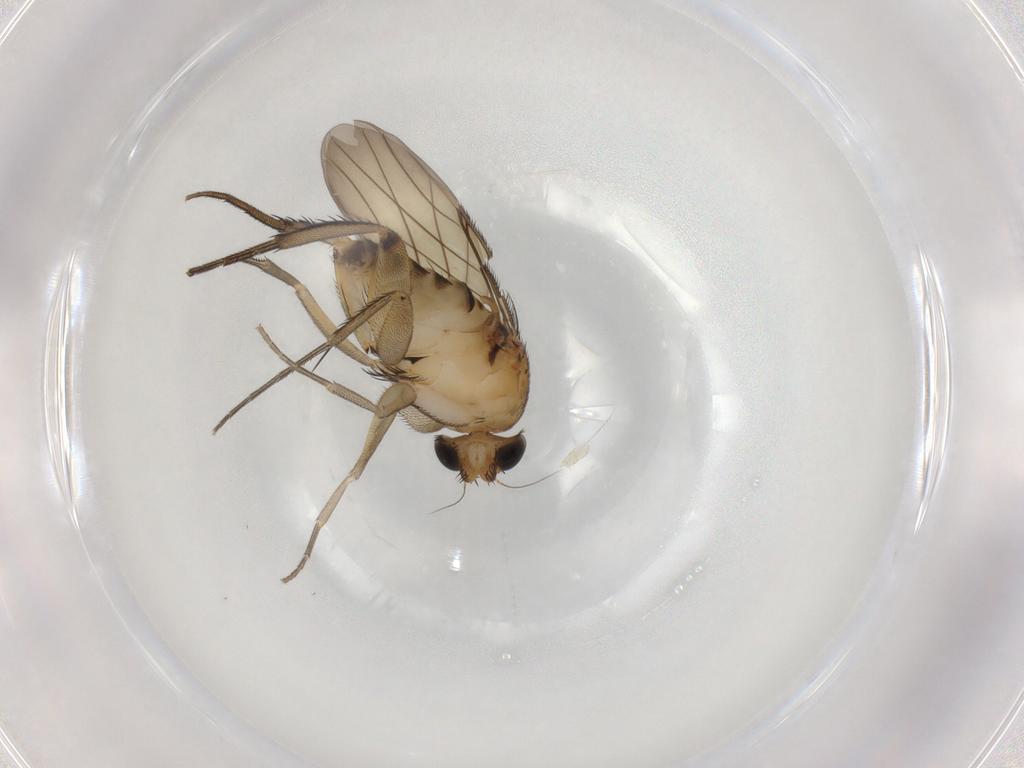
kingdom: Animalia
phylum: Arthropoda
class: Insecta
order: Diptera
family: Phoridae
